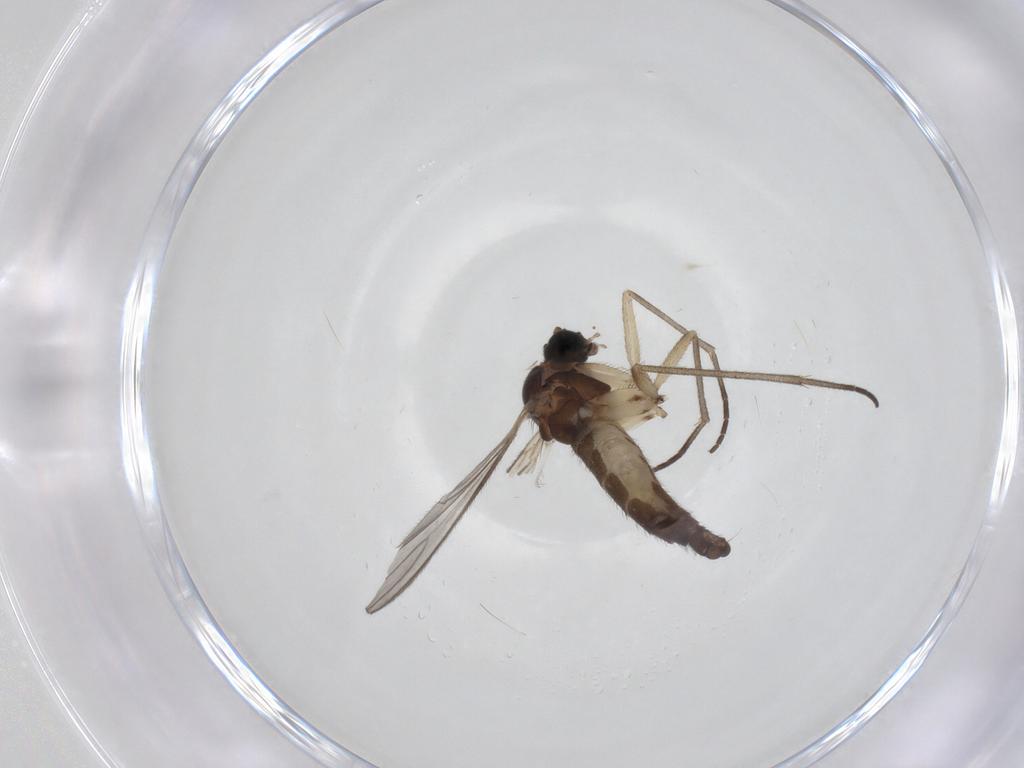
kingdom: Animalia
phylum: Arthropoda
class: Insecta
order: Diptera
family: Sciaridae
